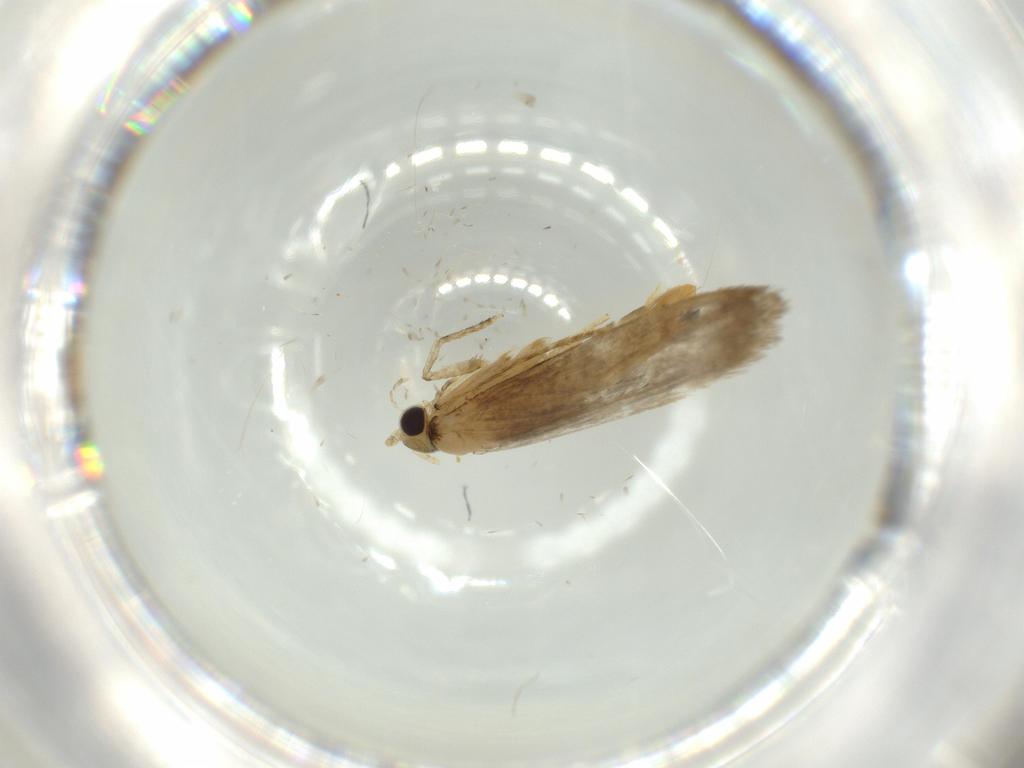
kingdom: Animalia
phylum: Arthropoda
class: Insecta
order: Lepidoptera
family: Tineidae
